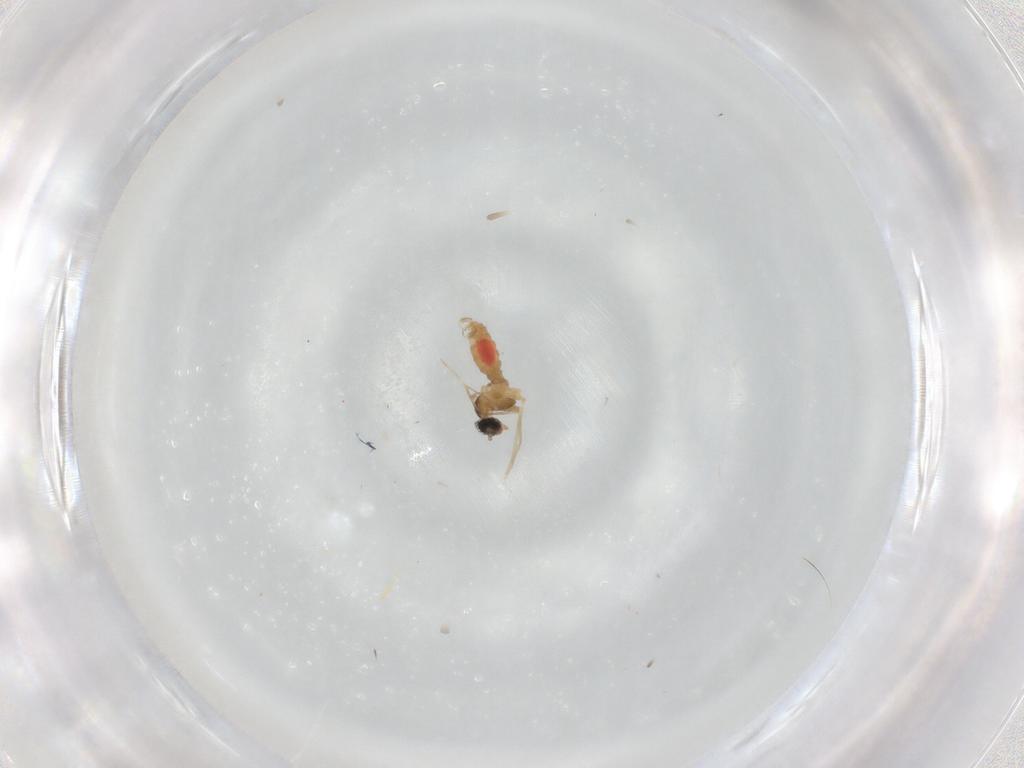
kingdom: Animalia
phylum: Arthropoda
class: Insecta
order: Diptera
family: Cecidomyiidae
